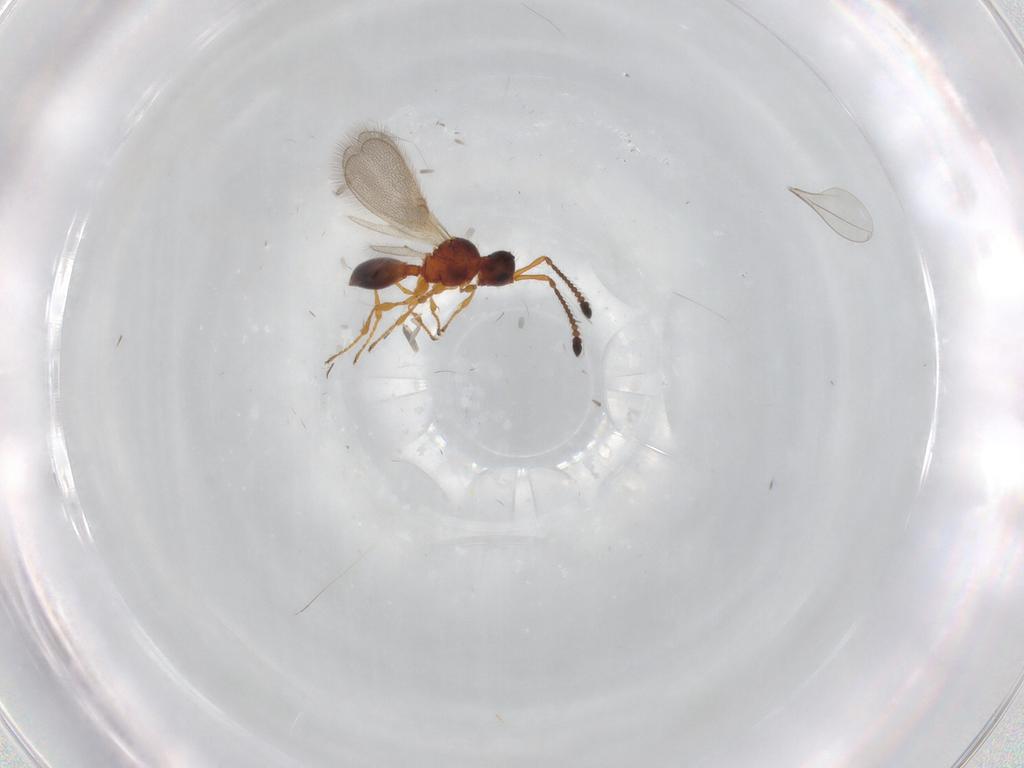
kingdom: Animalia
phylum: Arthropoda
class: Insecta
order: Hymenoptera
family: Diapriidae
